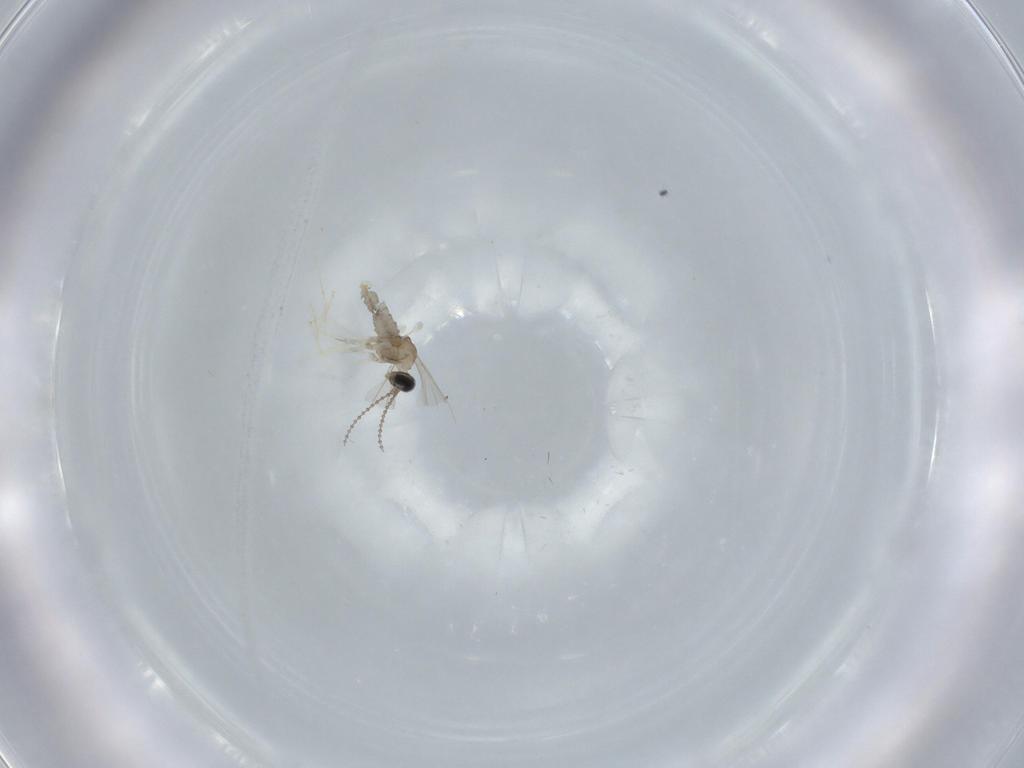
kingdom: Animalia
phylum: Arthropoda
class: Insecta
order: Diptera
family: Cecidomyiidae
